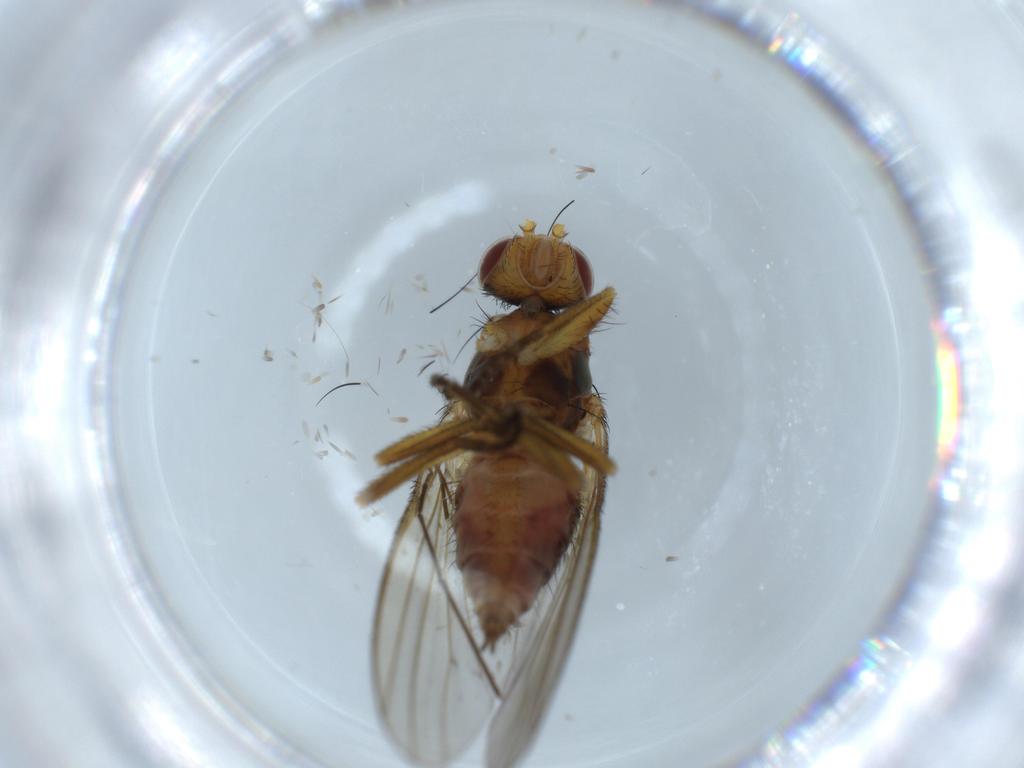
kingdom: Animalia
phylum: Arthropoda
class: Insecta
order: Diptera
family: Heleomyzidae
